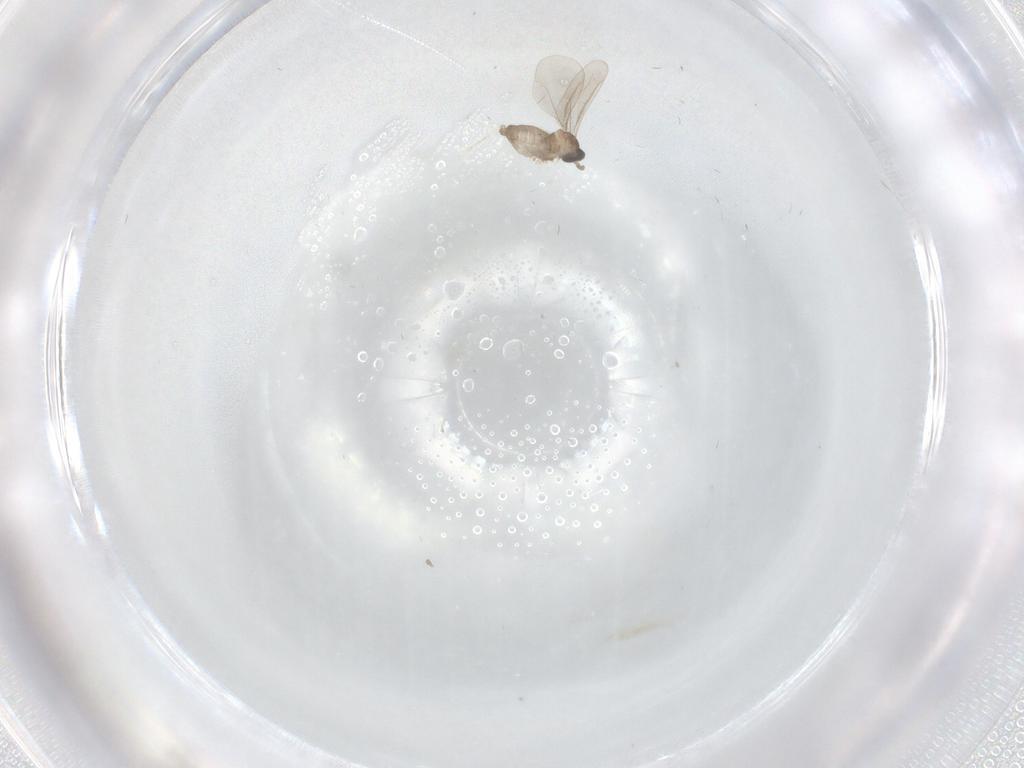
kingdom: Animalia
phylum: Arthropoda
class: Insecta
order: Diptera
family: Cecidomyiidae
